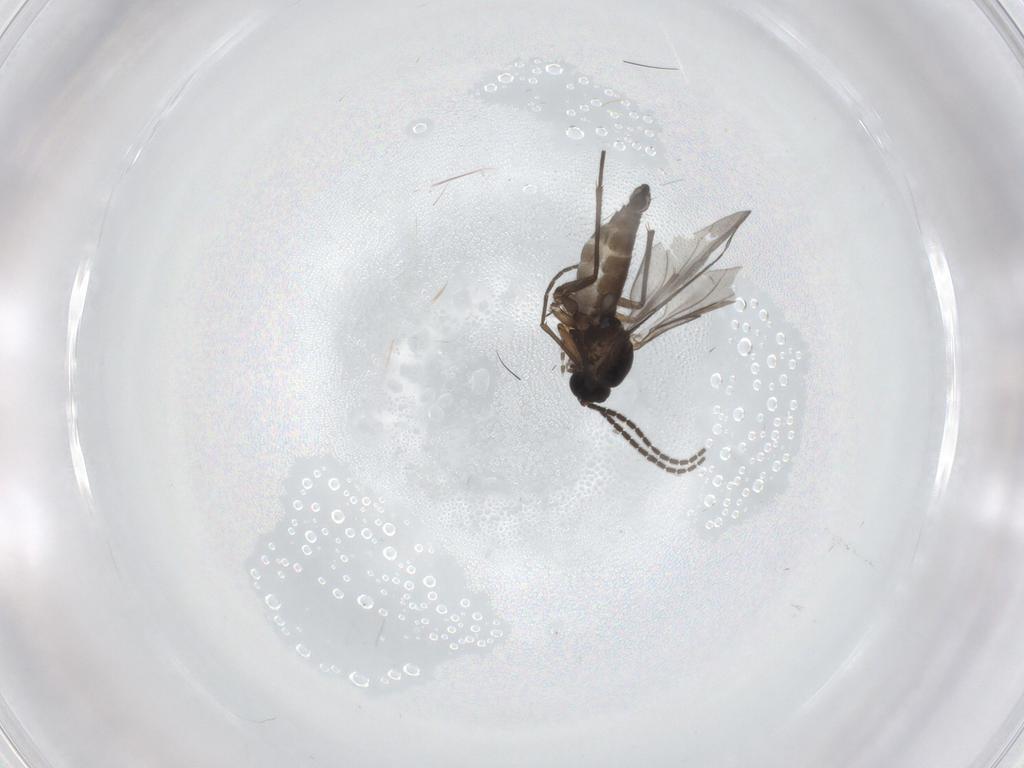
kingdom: Animalia
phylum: Arthropoda
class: Insecta
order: Diptera
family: Sciaridae
